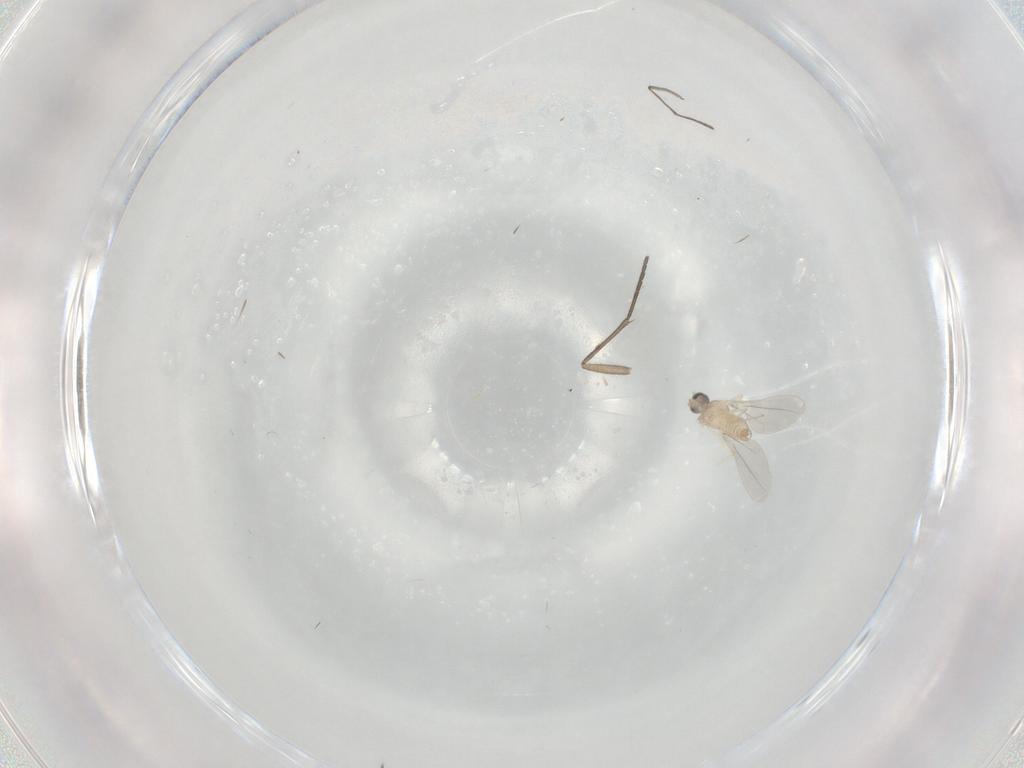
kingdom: Animalia
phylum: Arthropoda
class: Insecta
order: Diptera
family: Cecidomyiidae
